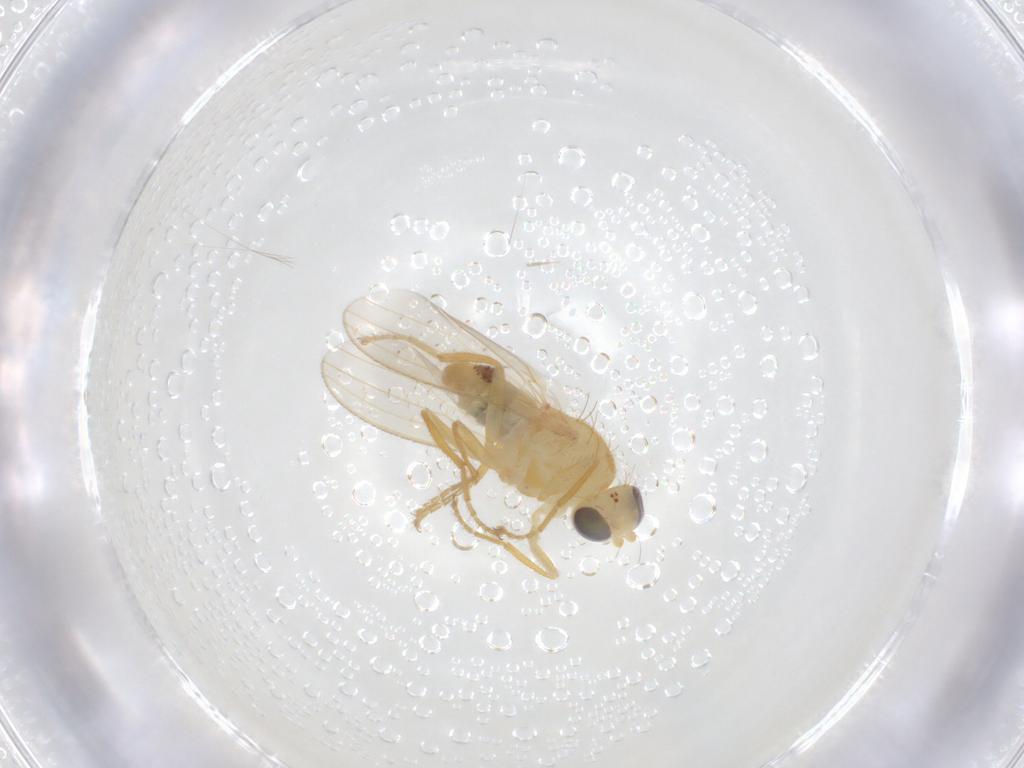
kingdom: Animalia
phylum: Arthropoda
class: Insecta
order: Diptera
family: Chyromyidae
